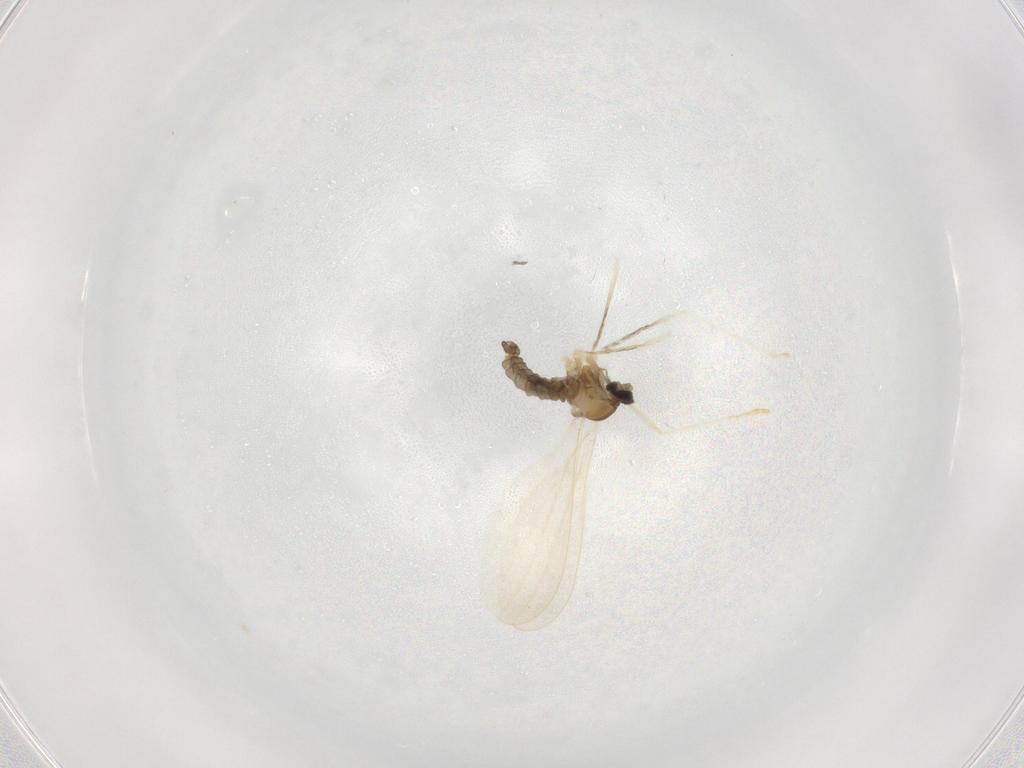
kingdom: Animalia
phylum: Arthropoda
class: Insecta
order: Diptera
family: Cecidomyiidae
